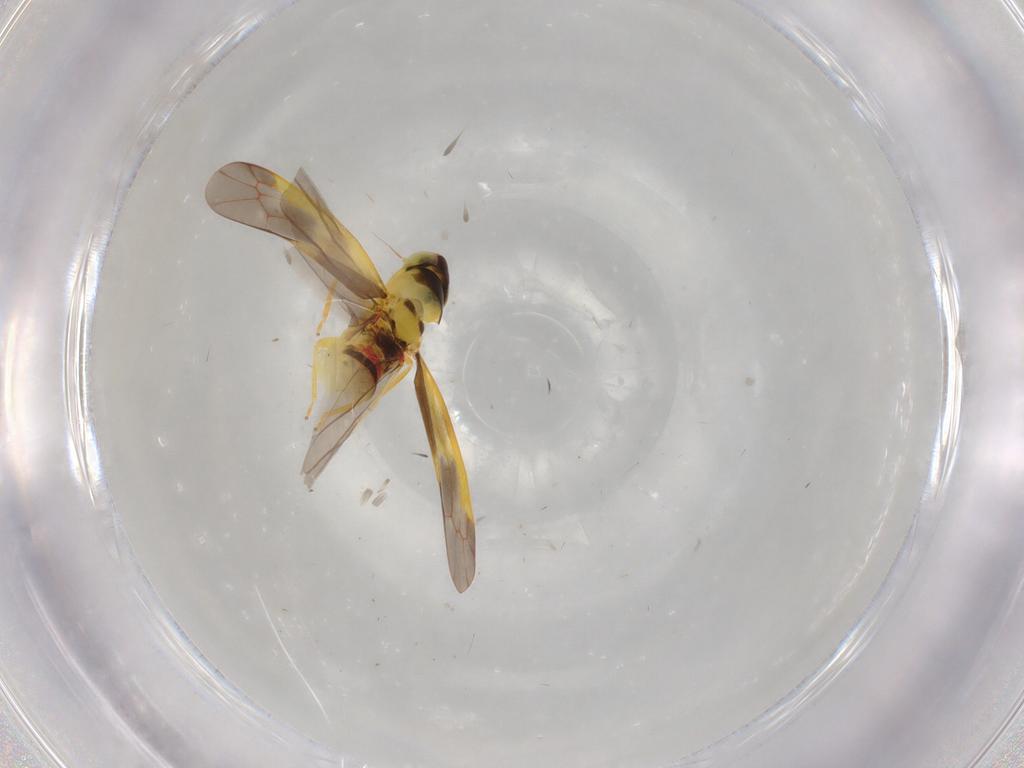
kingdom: Animalia
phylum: Arthropoda
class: Insecta
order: Hemiptera
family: Cicadellidae
